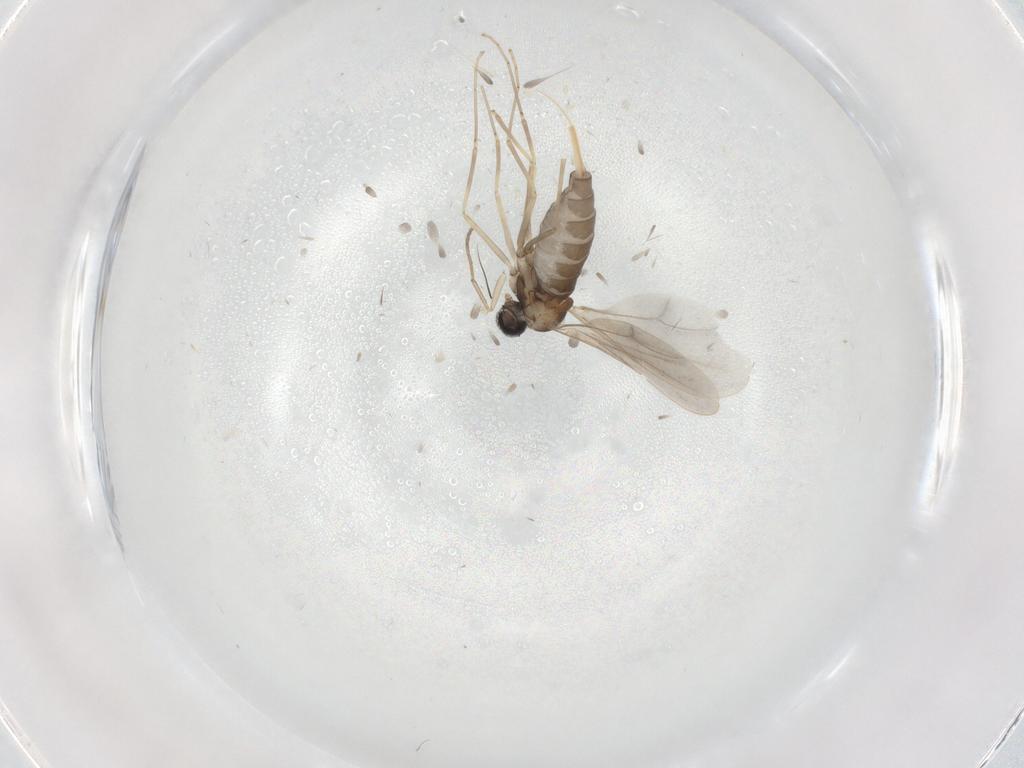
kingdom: Animalia
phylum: Arthropoda
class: Insecta
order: Diptera
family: Cecidomyiidae
